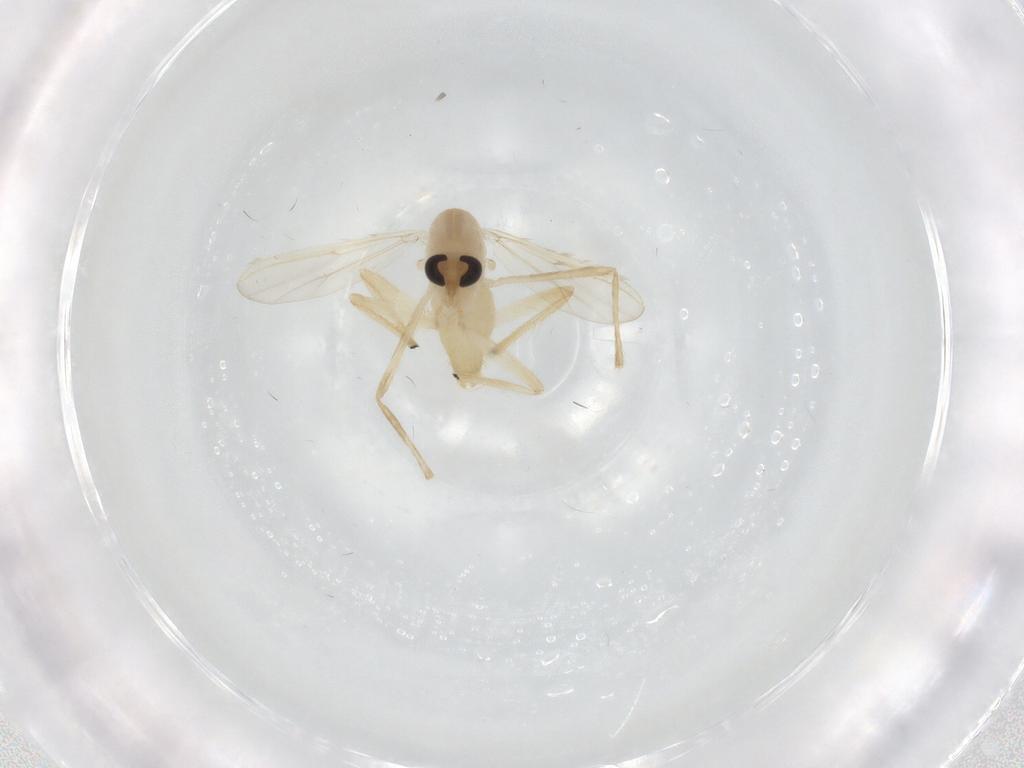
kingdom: Animalia
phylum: Arthropoda
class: Insecta
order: Diptera
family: Chironomidae
